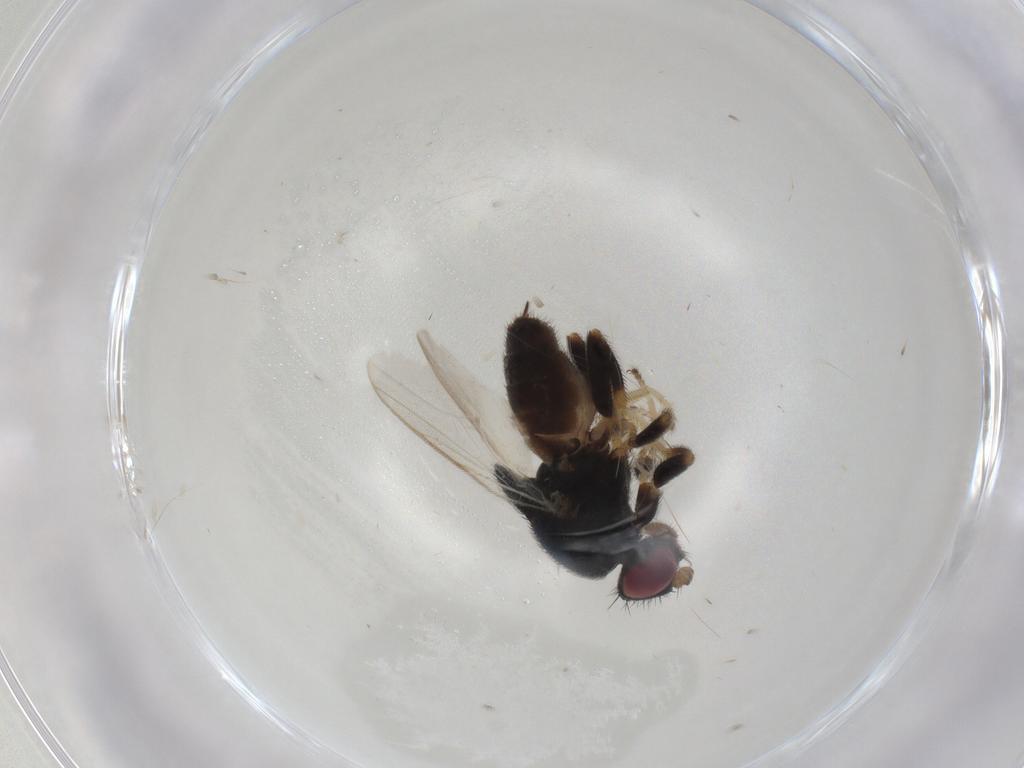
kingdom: Animalia
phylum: Arthropoda
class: Insecta
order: Diptera
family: Chloropidae
